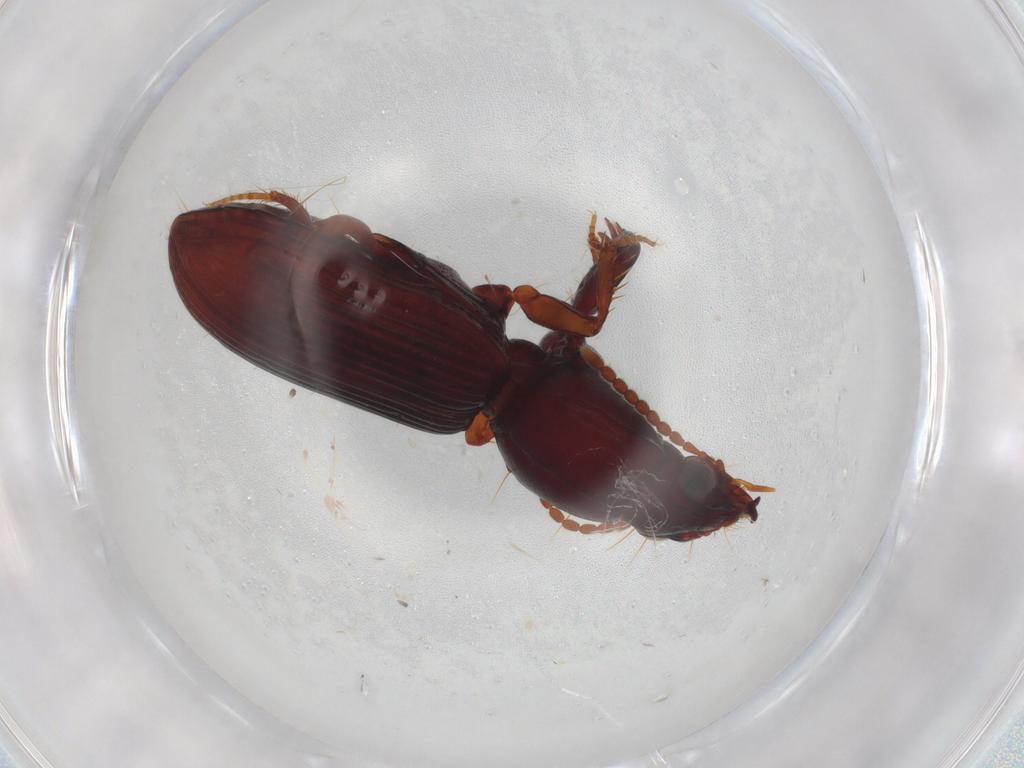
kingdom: Animalia
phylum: Arthropoda
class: Insecta
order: Coleoptera
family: Carabidae
